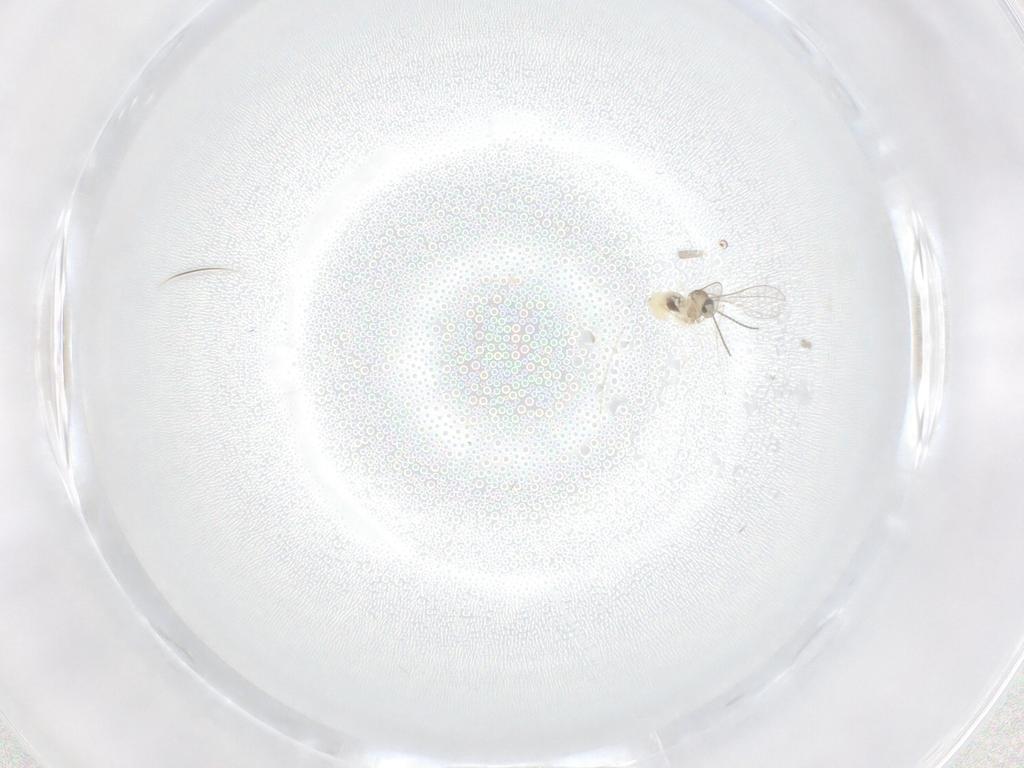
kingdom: Animalia
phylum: Arthropoda
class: Insecta
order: Diptera
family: Cecidomyiidae
